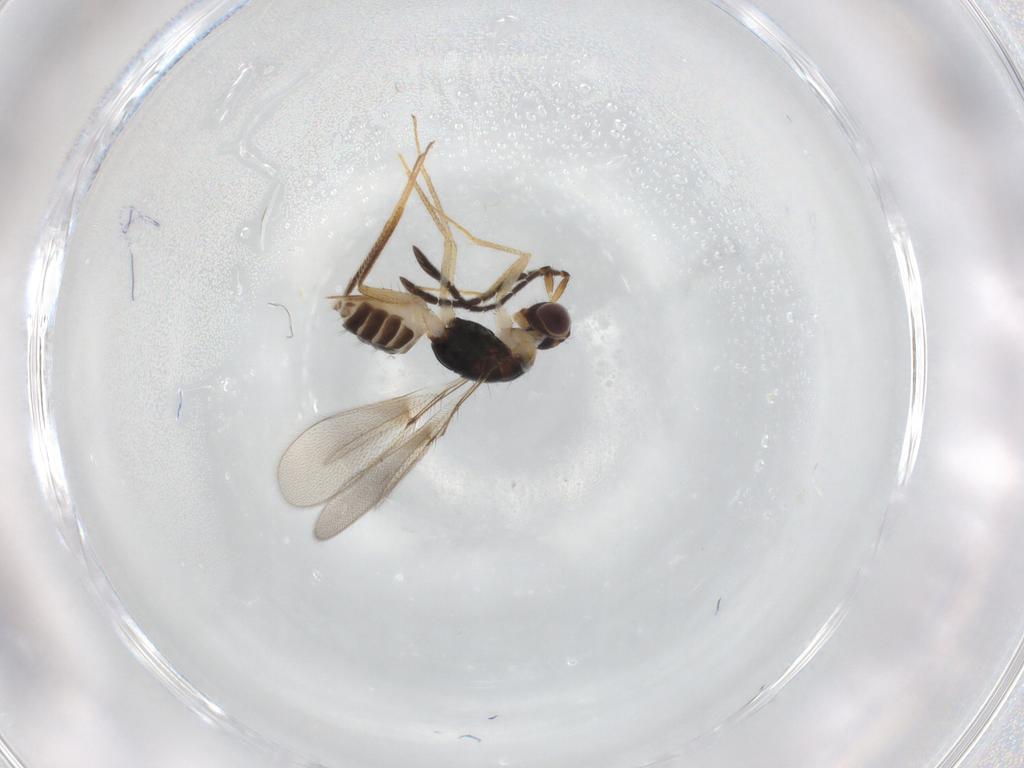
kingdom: Animalia
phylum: Arthropoda
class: Insecta
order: Hymenoptera
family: Mymaridae
